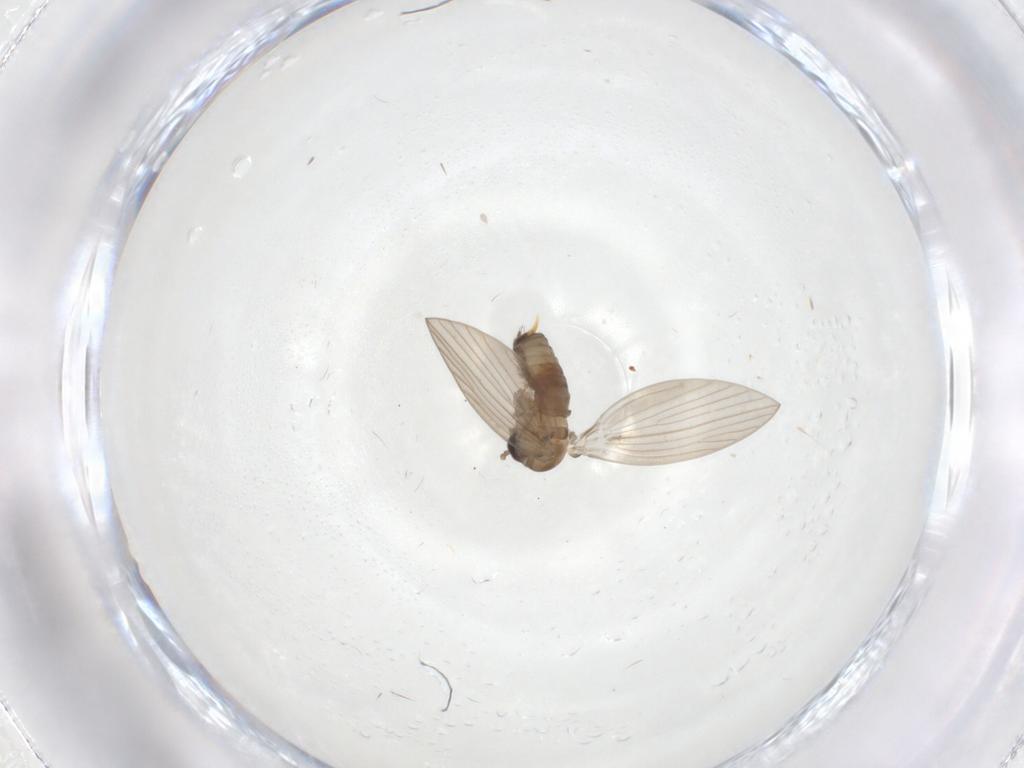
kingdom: Animalia
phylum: Arthropoda
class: Insecta
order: Diptera
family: Psychodidae
